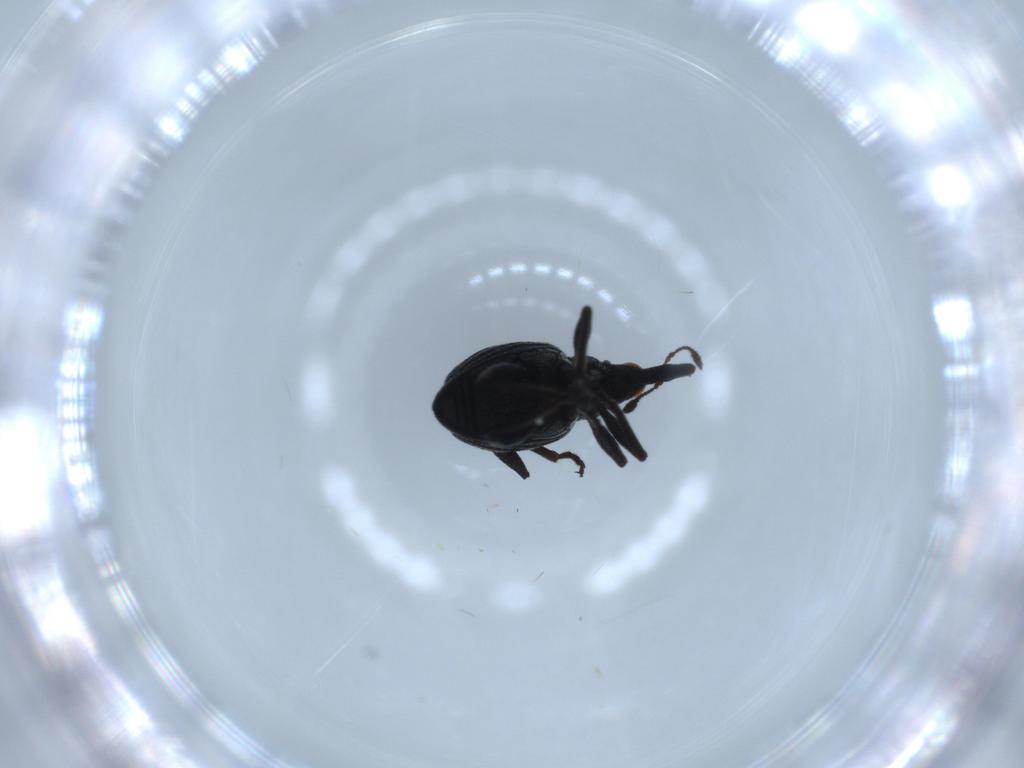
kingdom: Animalia
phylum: Arthropoda
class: Insecta
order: Coleoptera
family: Brentidae
